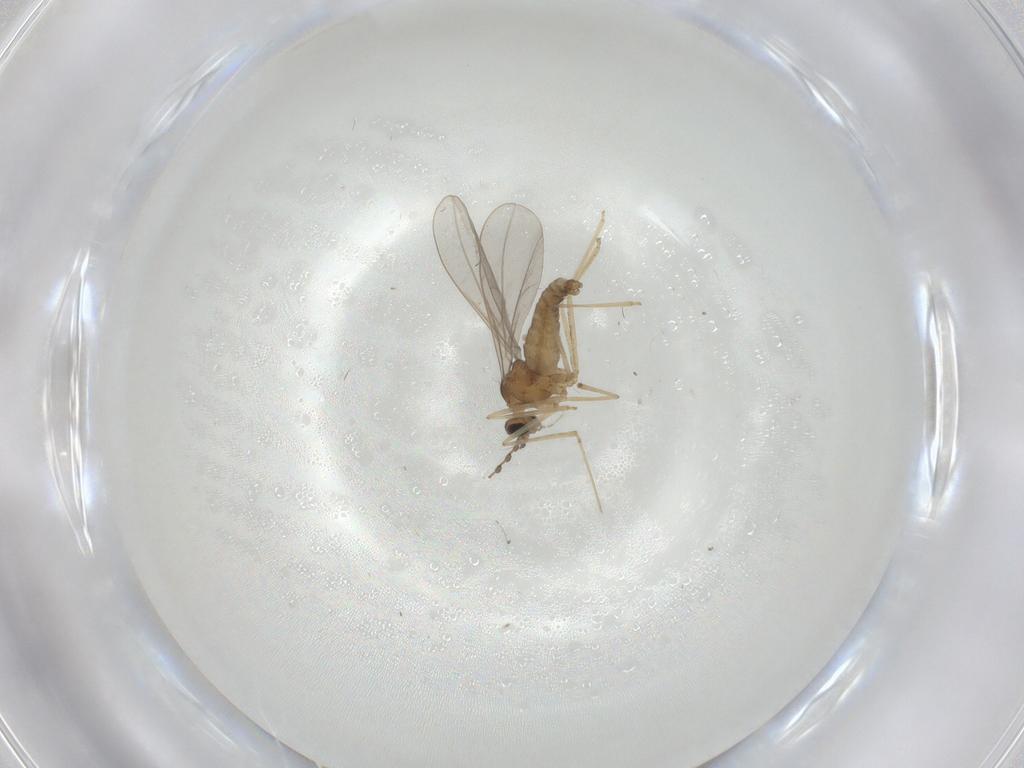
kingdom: Animalia
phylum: Arthropoda
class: Insecta
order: Diptera
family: Cecidomyiidae
